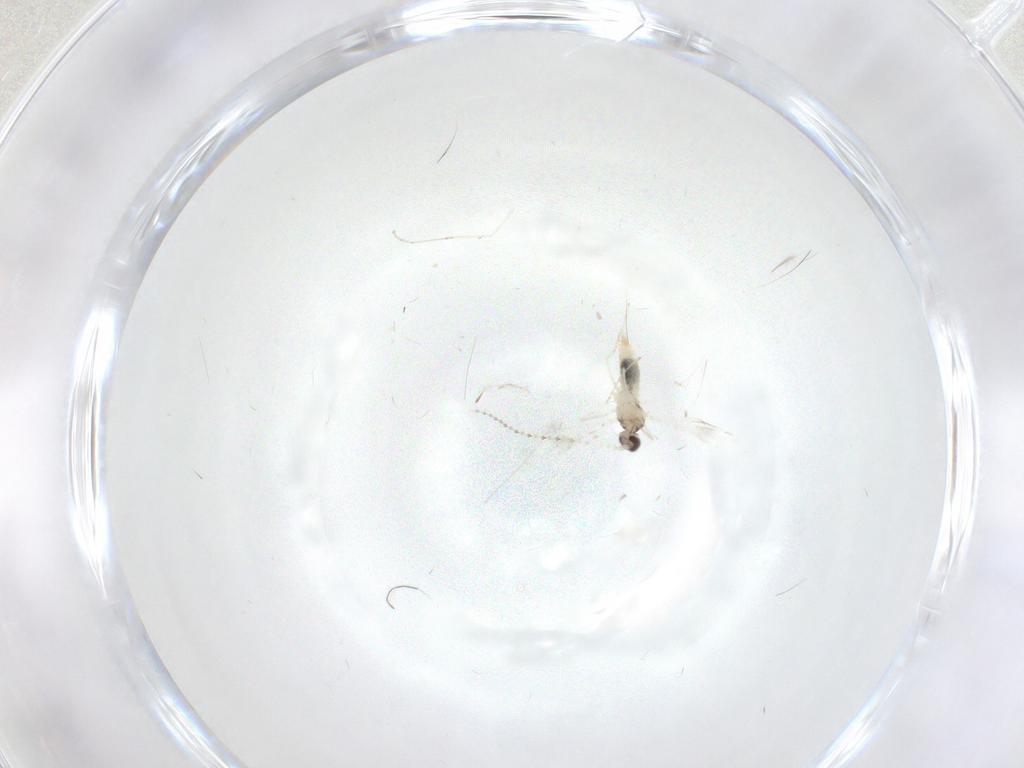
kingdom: Animalia
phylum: Arthropoda
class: Insecta
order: Diptera
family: Cecidomyiidae
